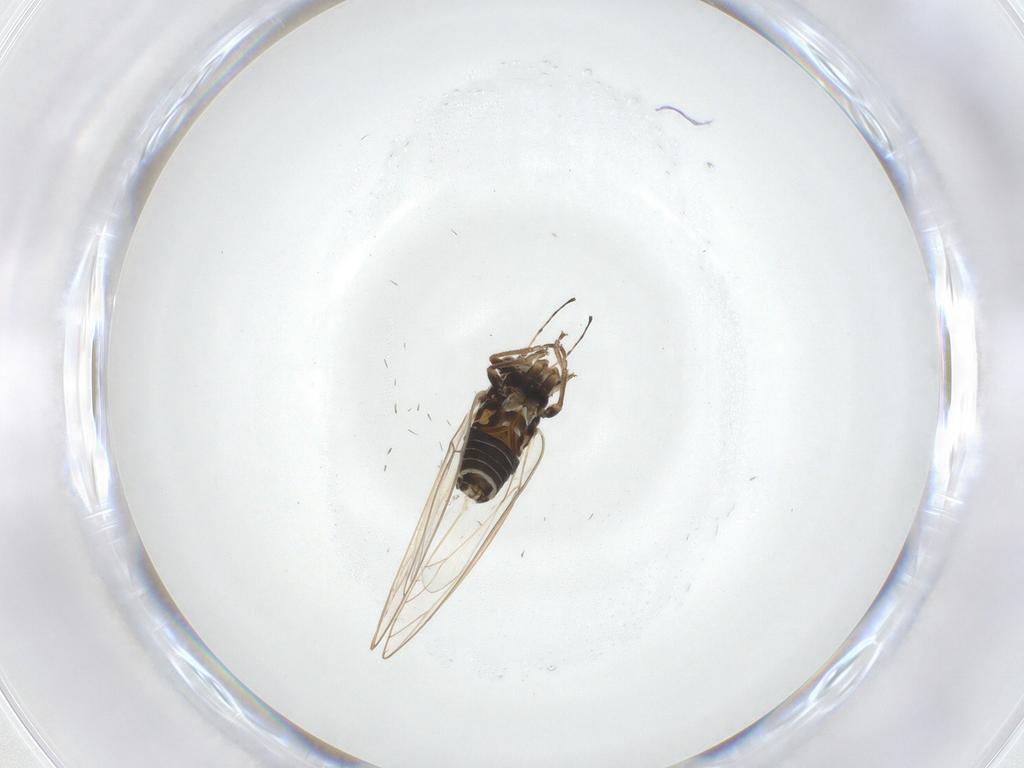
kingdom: Animalia
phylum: Arthropoda
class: Insecta
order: Hemiptera
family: Triozidae
